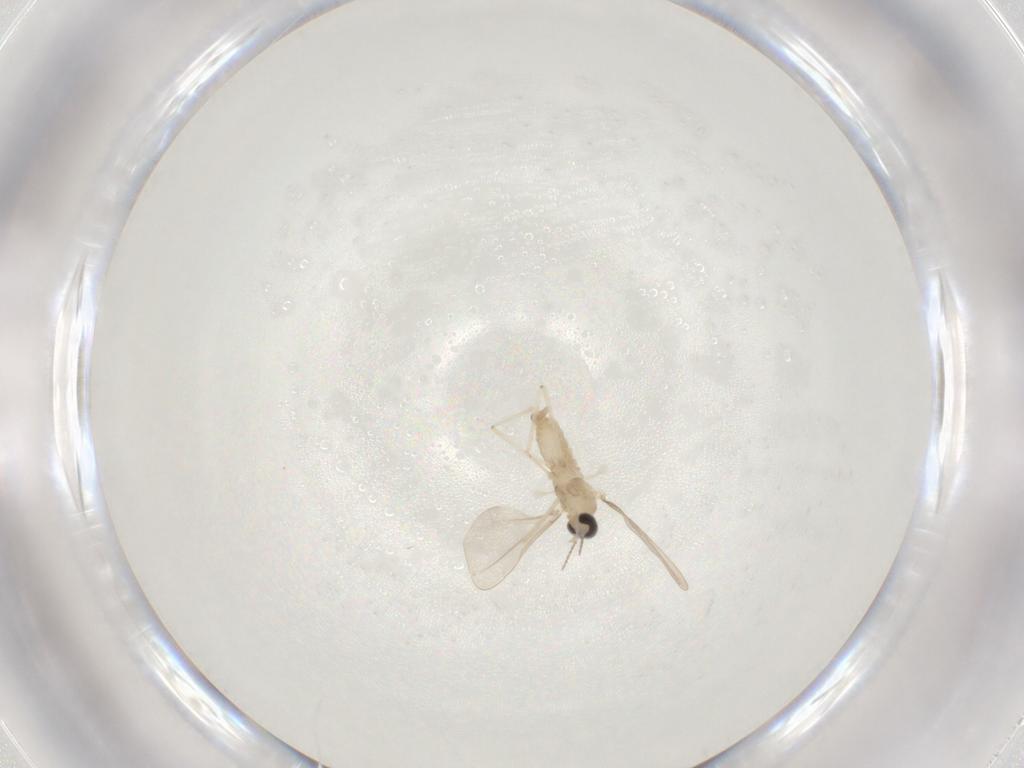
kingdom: Animalia
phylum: Arthropoda
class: Insecta
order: Diptera
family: Cecidomyiidae
